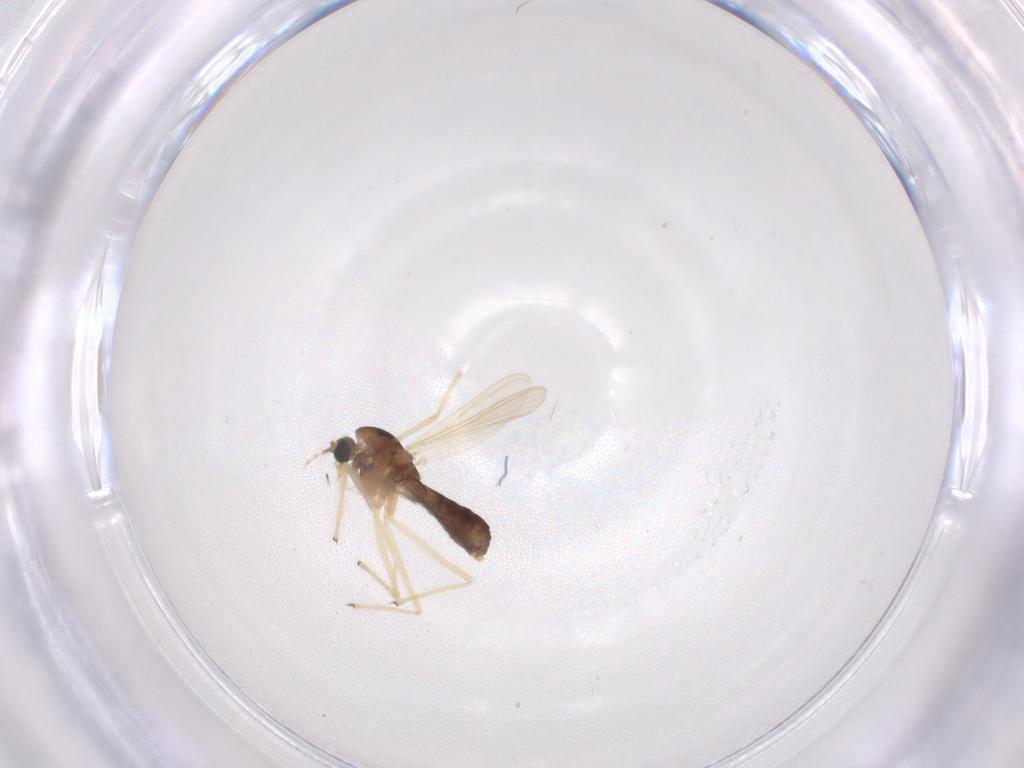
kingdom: Animalia
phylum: Arthropoda
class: Insecta
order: Diptera
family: Chironomidae
